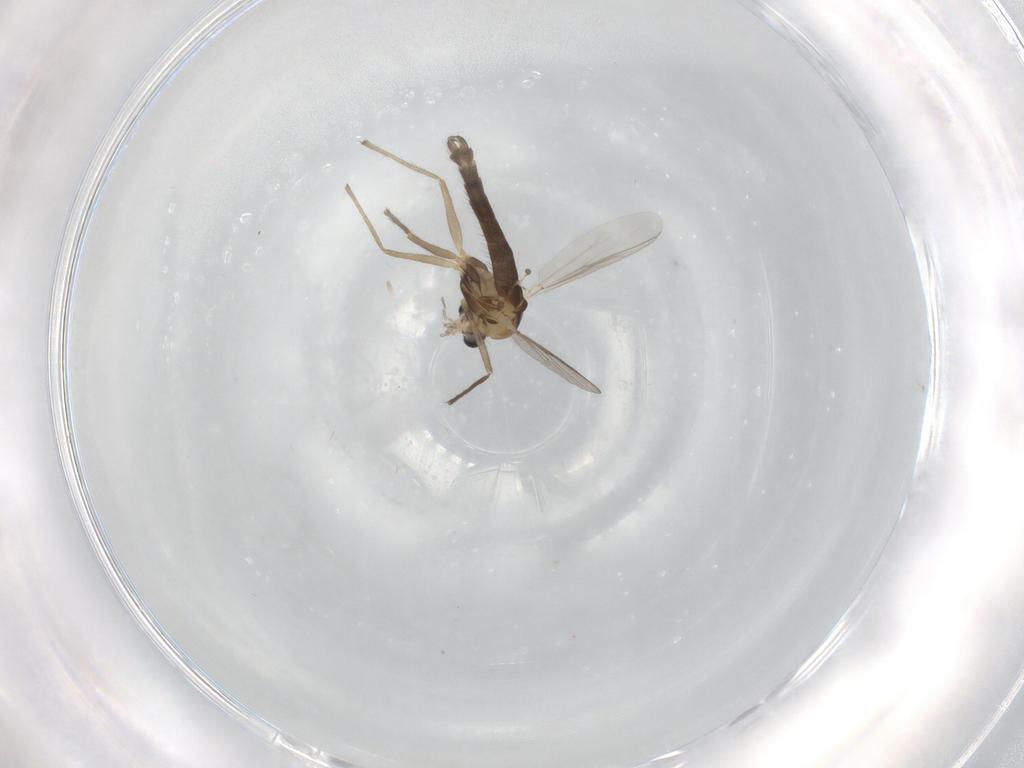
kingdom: Animalia
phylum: Arthropoda
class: Insecta
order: Diptera
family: Chironomidae
